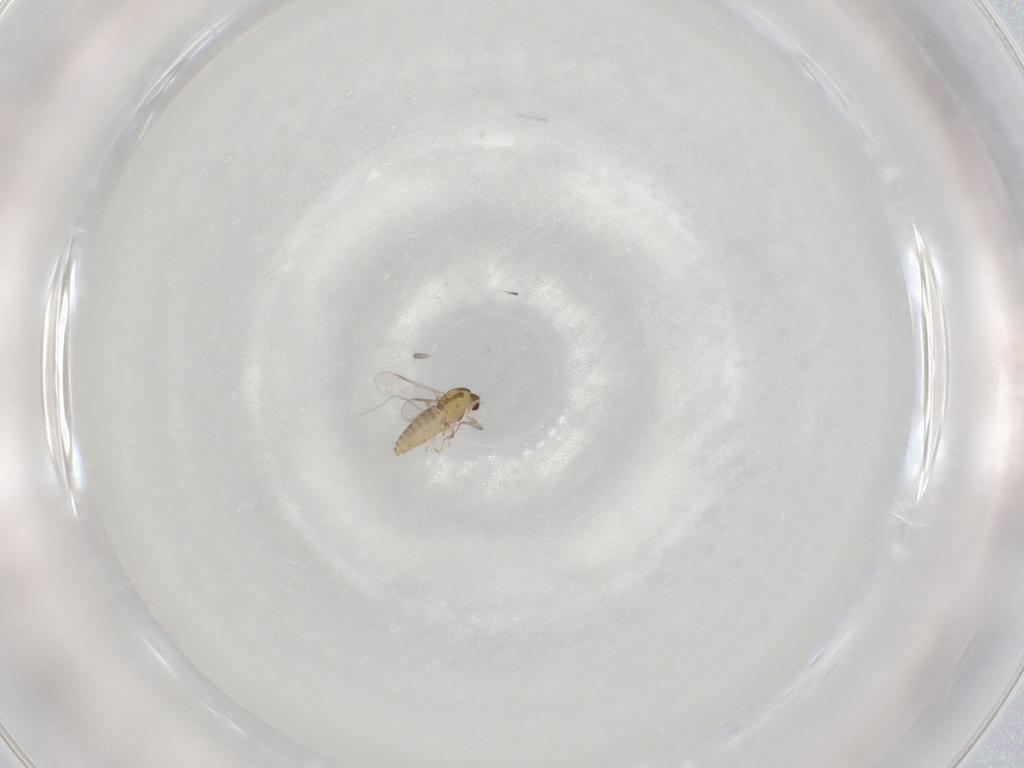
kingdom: Animalia
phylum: Arthropoda
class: Insecta
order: Diptera
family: Chironomidae
